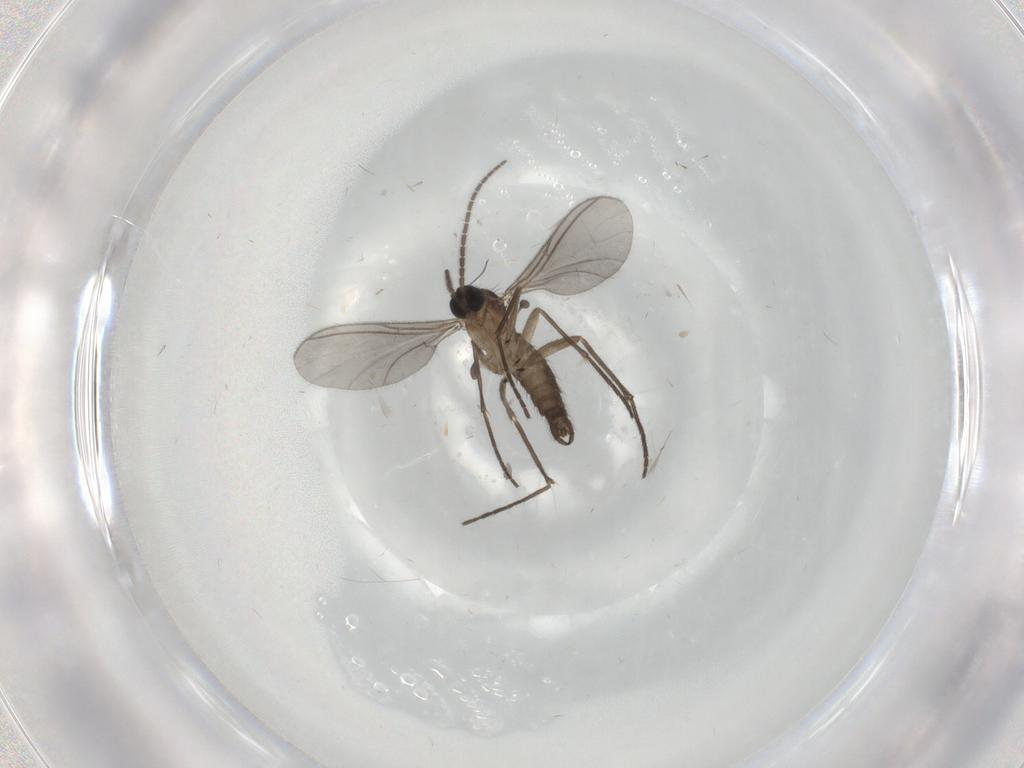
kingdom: Animalia
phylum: Arthropoda
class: Insecta
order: Diptera
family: Sciaridae
